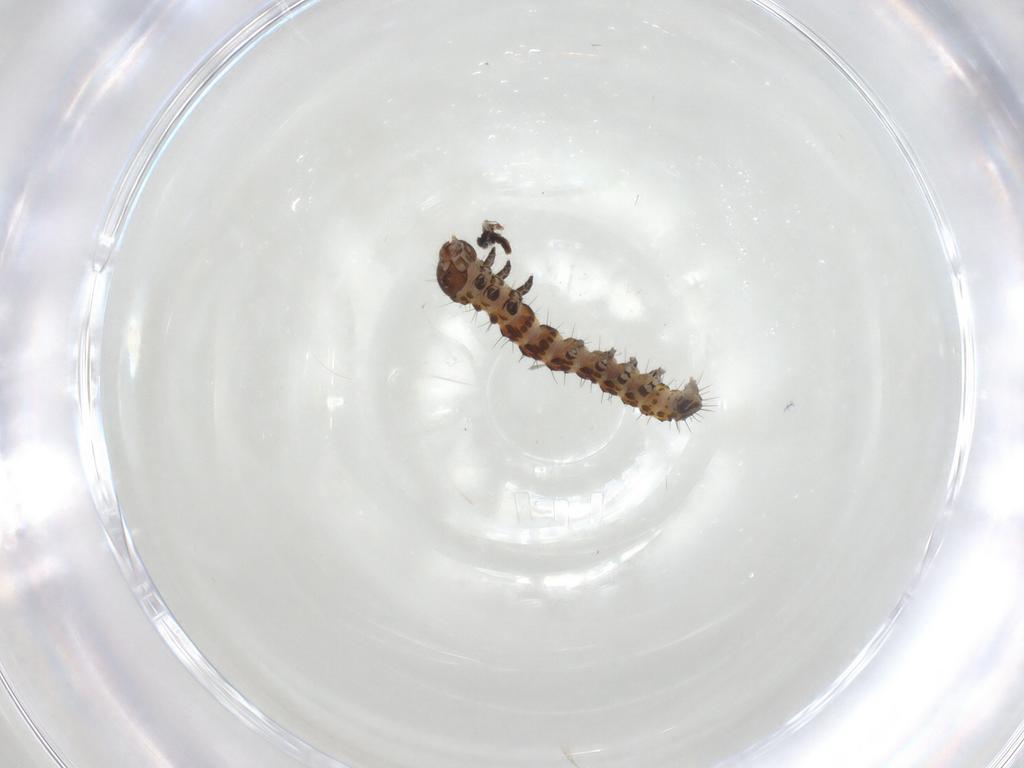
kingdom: Animalia
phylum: Arthropoda
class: Insecta
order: Lepidoptera
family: Noctuidae
